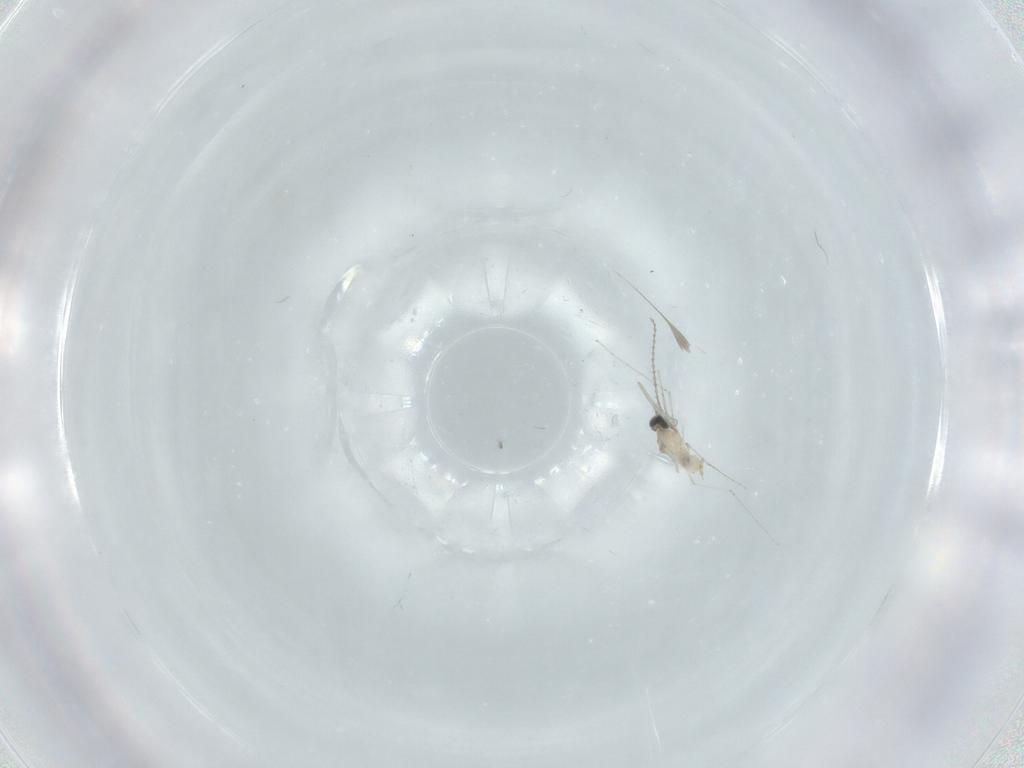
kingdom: Animalia
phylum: Arthropoda
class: Insecta
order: Diptera
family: Cecidomyiidae
